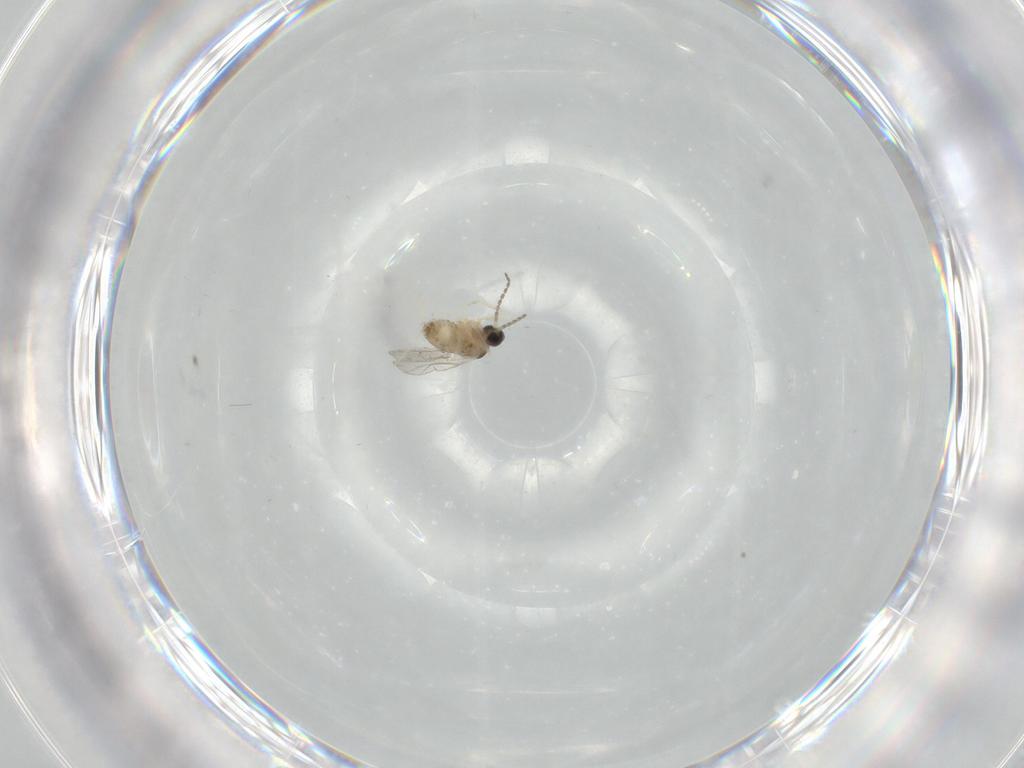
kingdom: Animalia
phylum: Arthropoda
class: Insecta
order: Diptera
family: Cecidomyiidae
